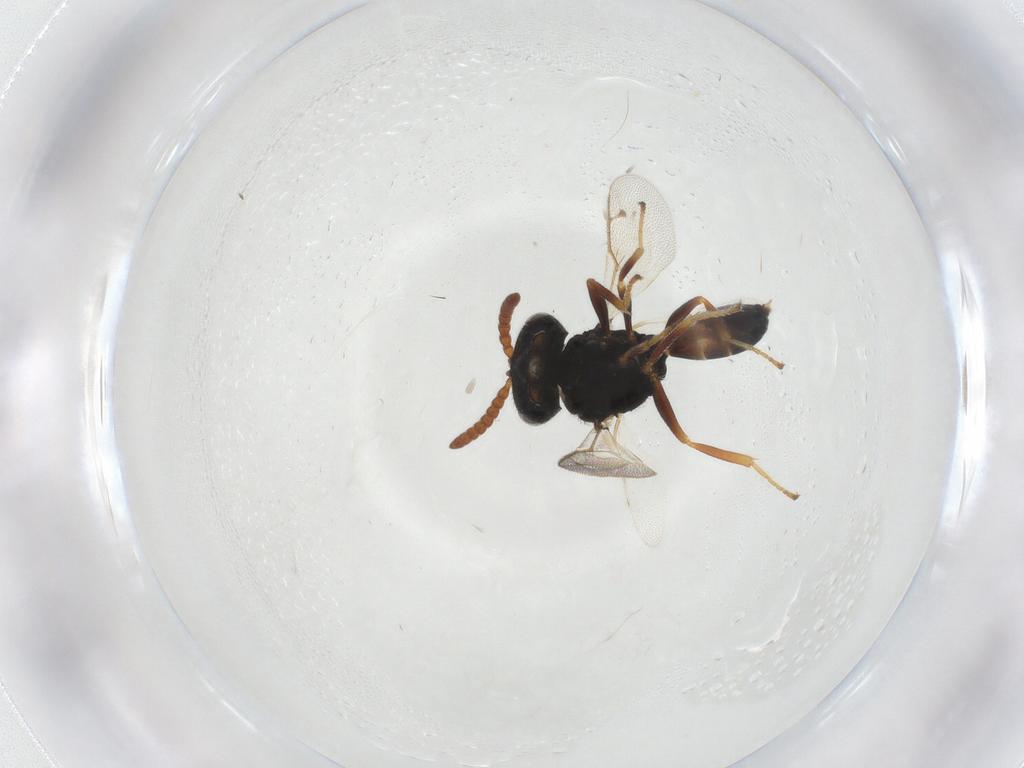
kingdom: Animalia
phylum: Arthropoda
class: Insecta
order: Hymenoptera
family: Pteromalidae
